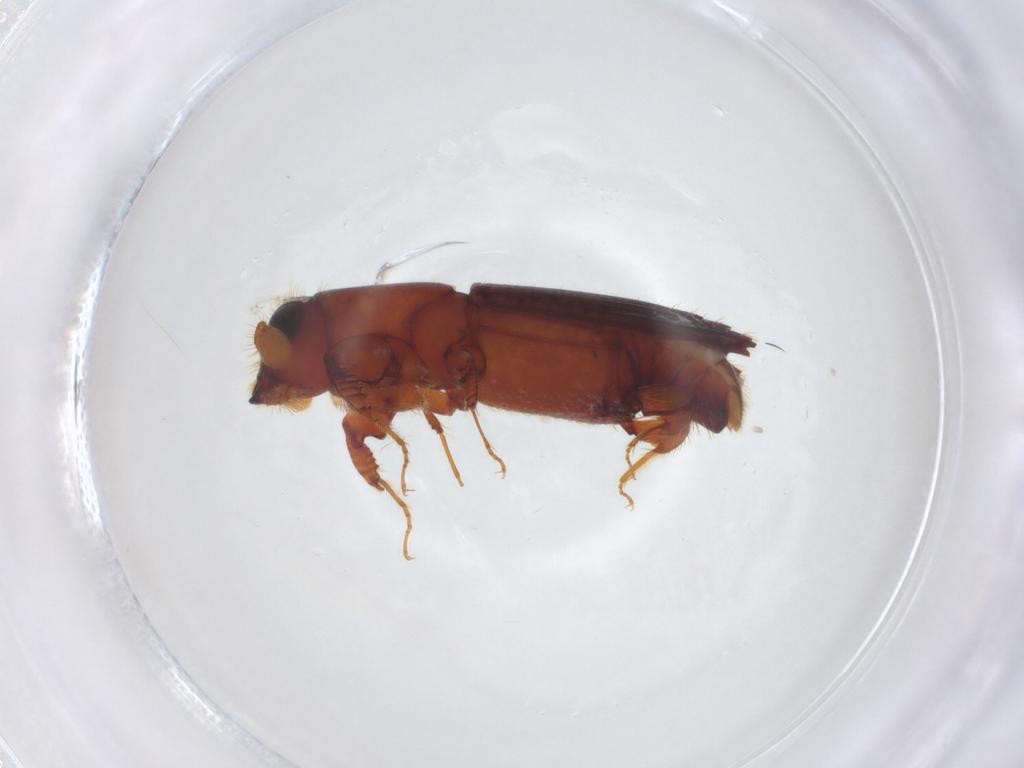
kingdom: Animalia
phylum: Arthropoda
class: Insecta
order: Coleoptera
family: Curculionidae
